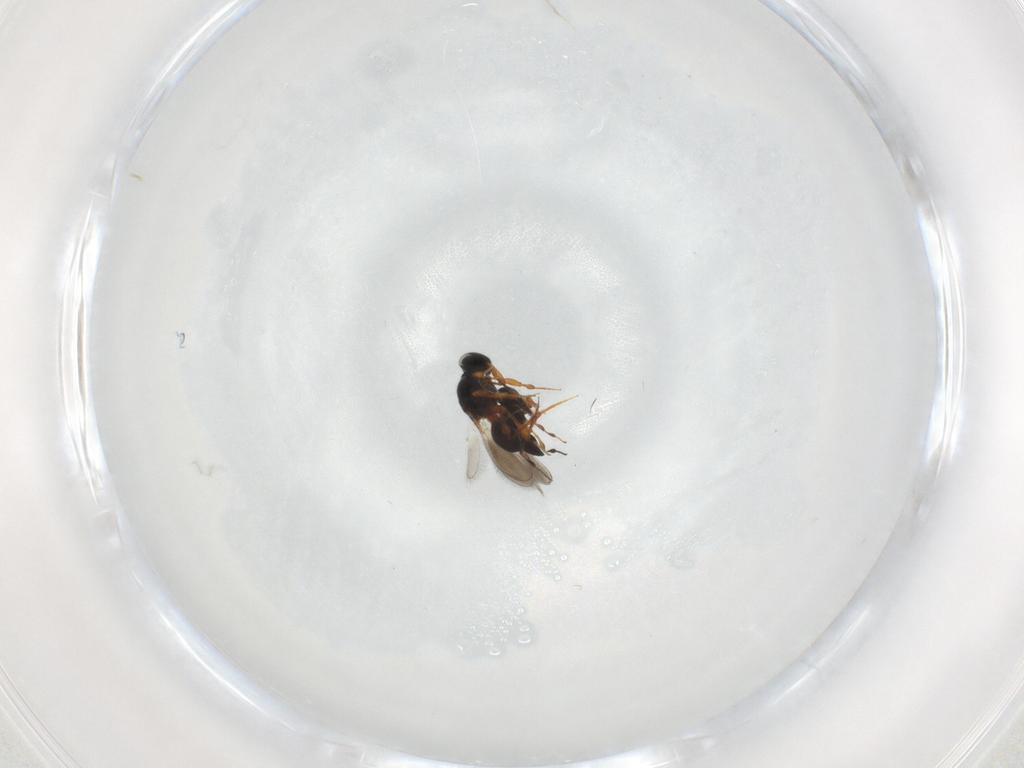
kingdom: Animalia
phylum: Arthropoda
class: Insecta
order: Hymenoptera
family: Platygastridae
